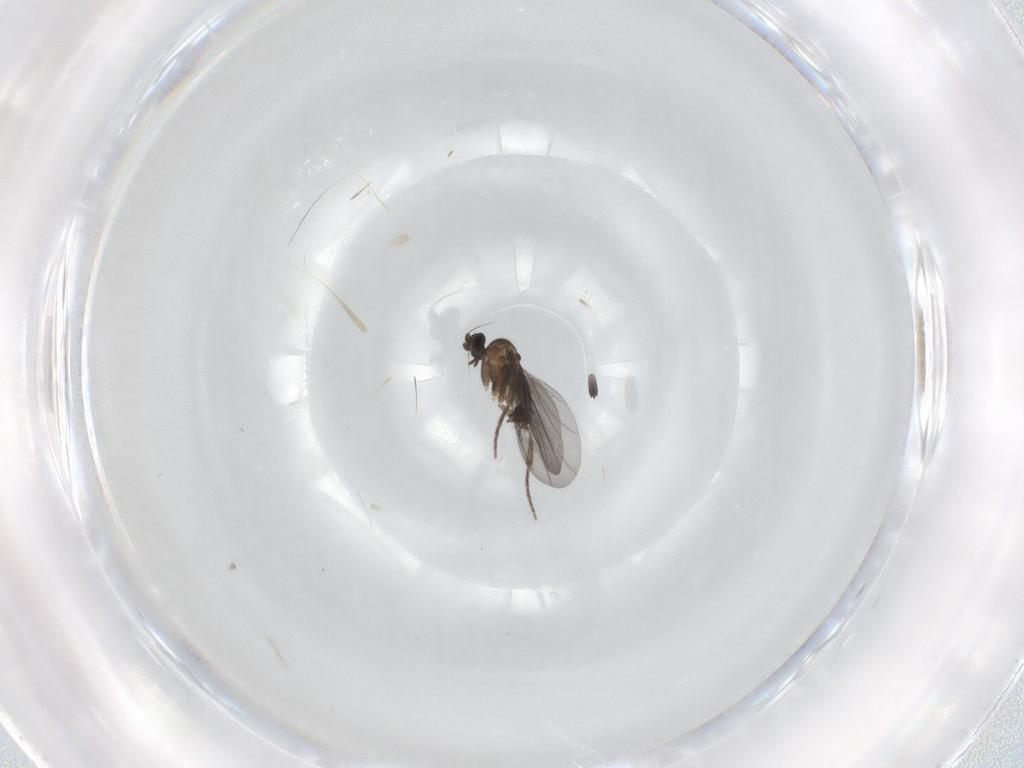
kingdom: Animalia
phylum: Arthropoda
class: Insecta
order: Diptera
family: Phoridae
